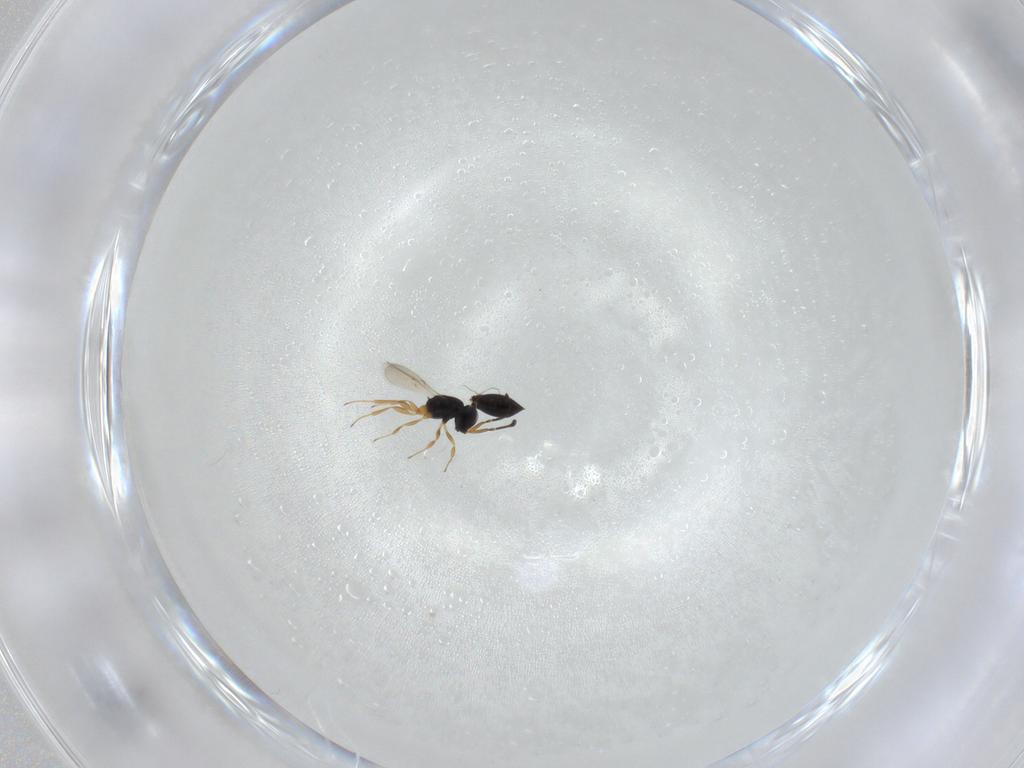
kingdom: Animalia
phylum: Arthropoda
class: Insecta
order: Hymenoptera
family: Scelionidae
